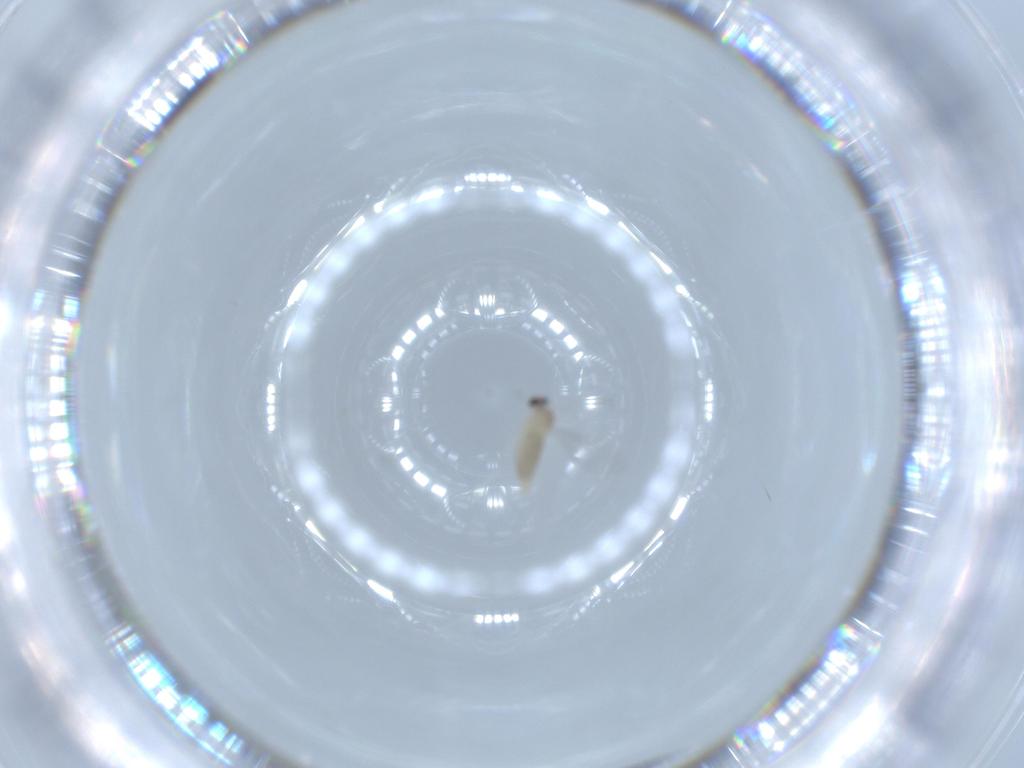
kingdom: Animalia
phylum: Arthropoda
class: Insecta
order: Diptera
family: Cecidomyiidae
